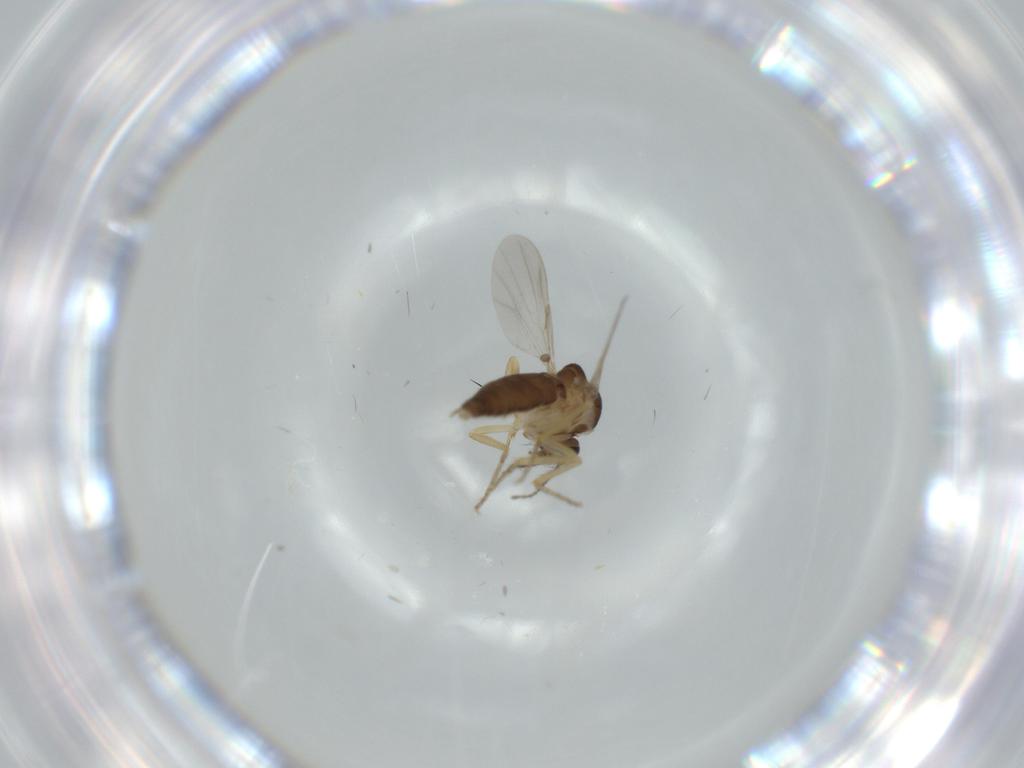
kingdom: Animalia
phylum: Arthropoda
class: Insecta
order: Diptera
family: Ceratopogonidae
